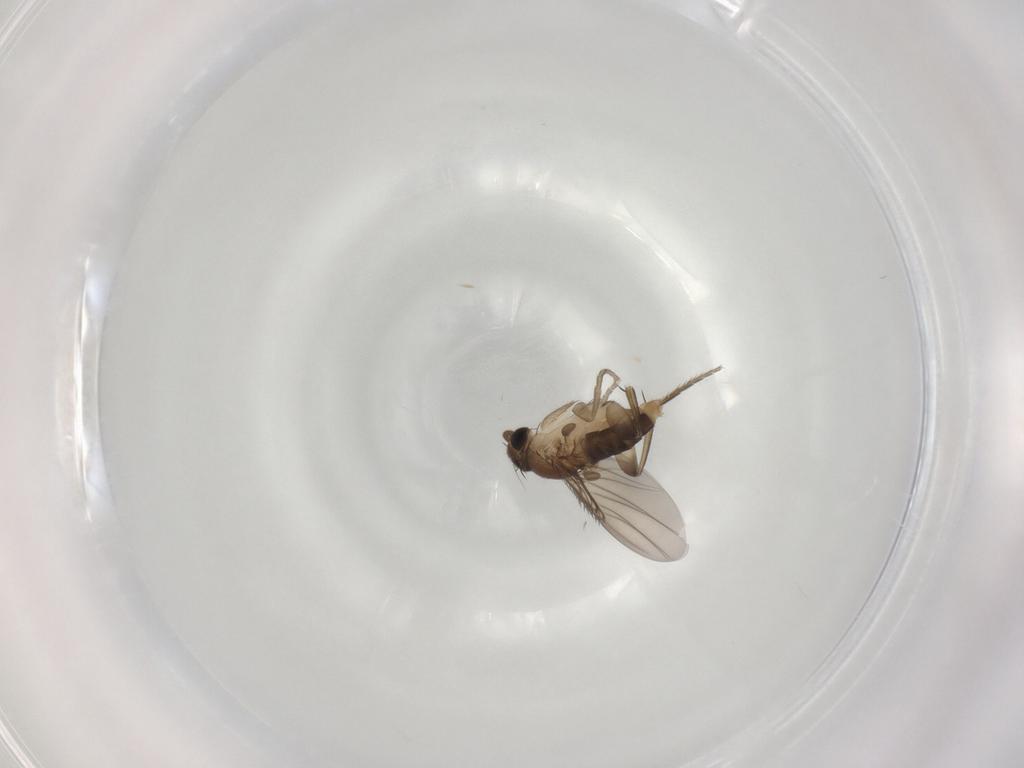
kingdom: Animalia
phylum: Arthropoda
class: Insecta
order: Diptera
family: Phoridae
